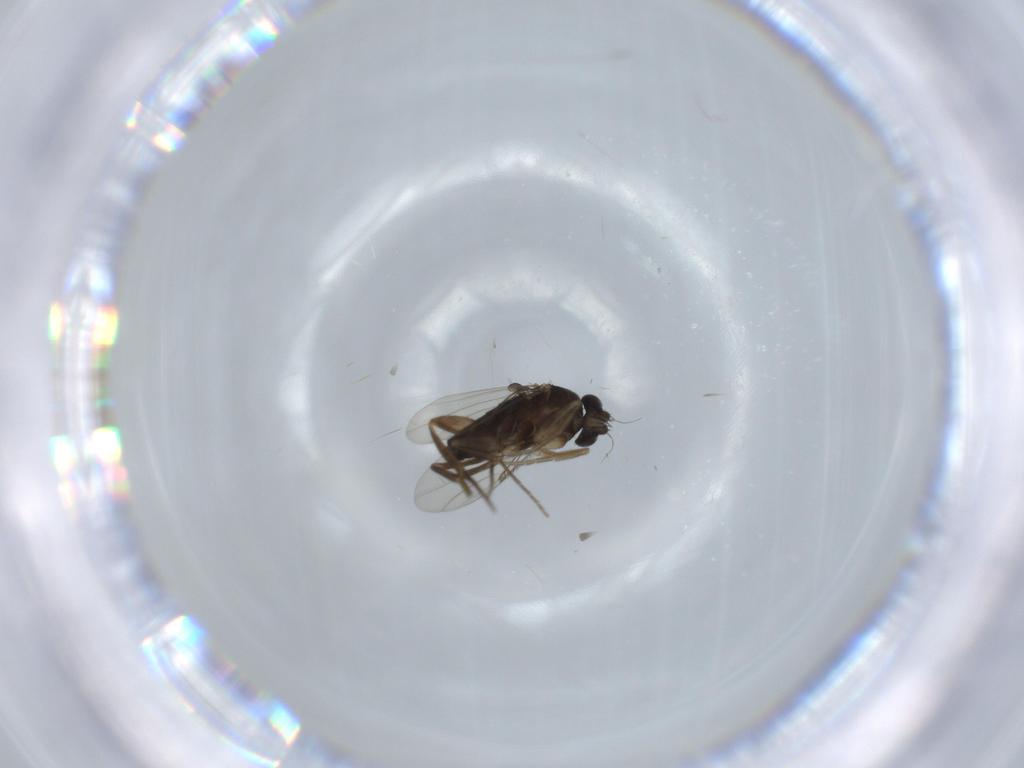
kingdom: Animalia
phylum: Arthropoda
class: Insecta
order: Diptera
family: Phoridae
